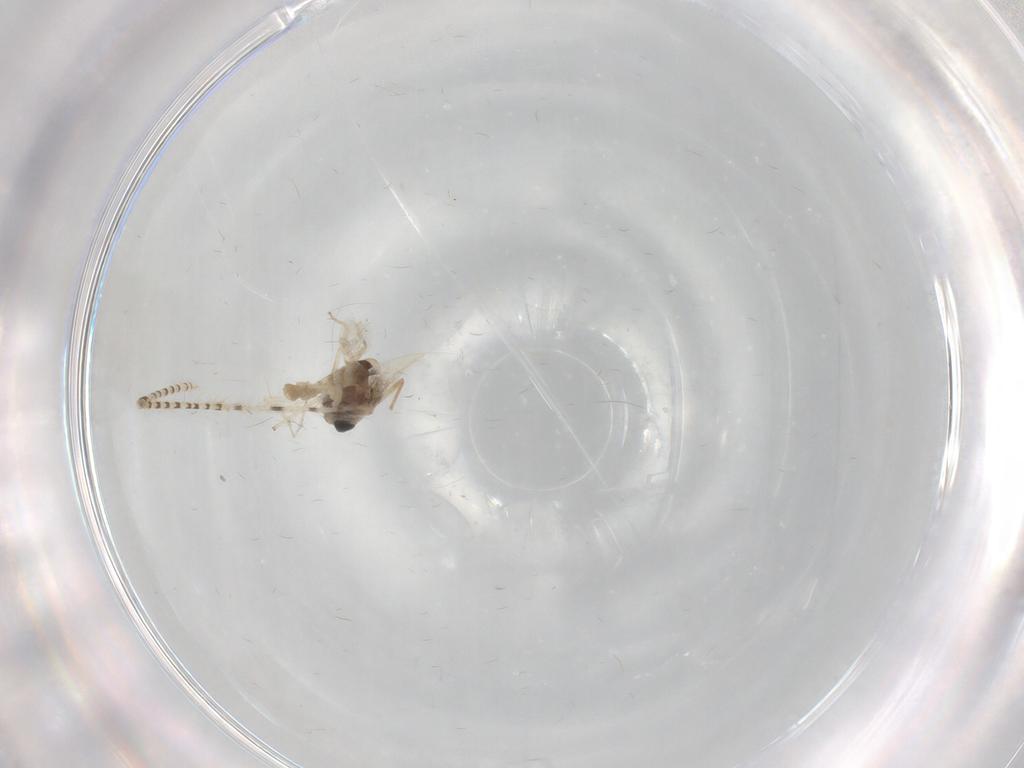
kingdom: Animalia
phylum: Arthropoda
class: Insecta
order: Diptera
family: Chironomidae
